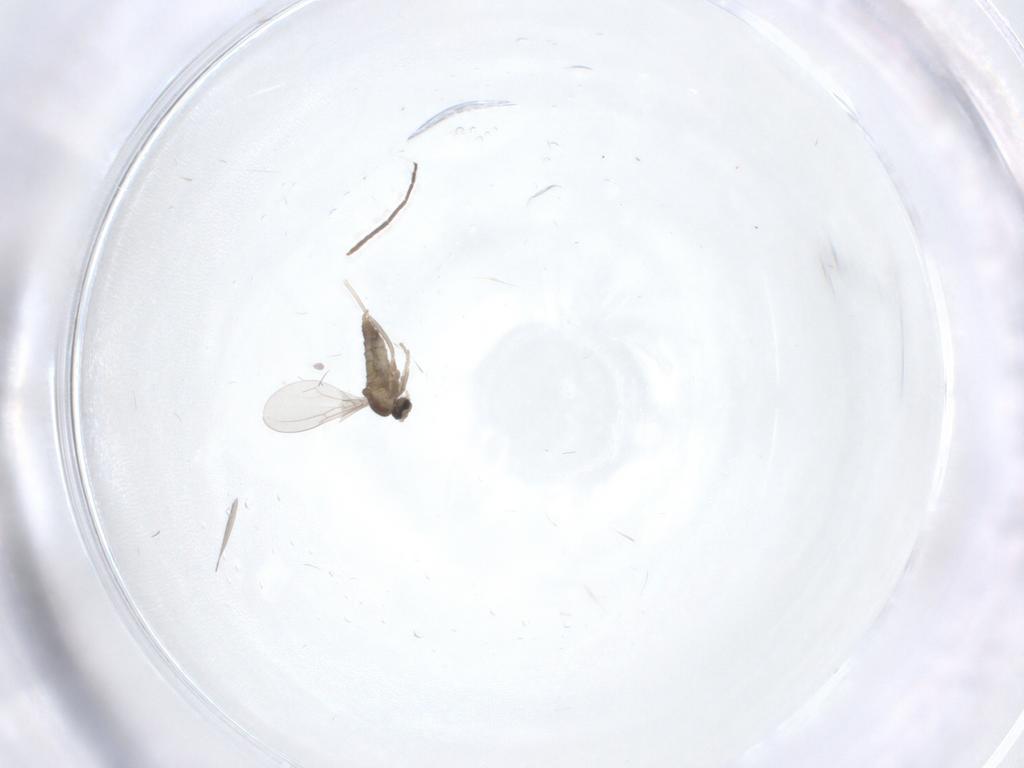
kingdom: Animalia
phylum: Arthropoda
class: Insecta
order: Diptera
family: Cecidomyiidae
